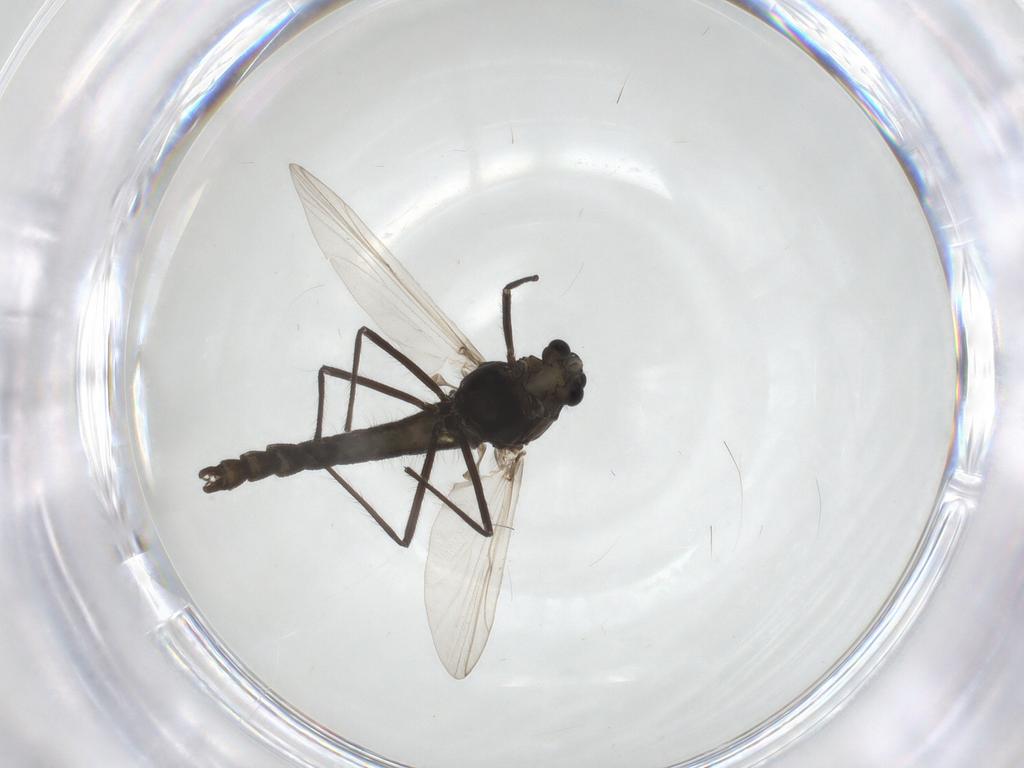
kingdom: Animalia
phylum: Arthropoda
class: Insecta
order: Diptera
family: Chironomidae
